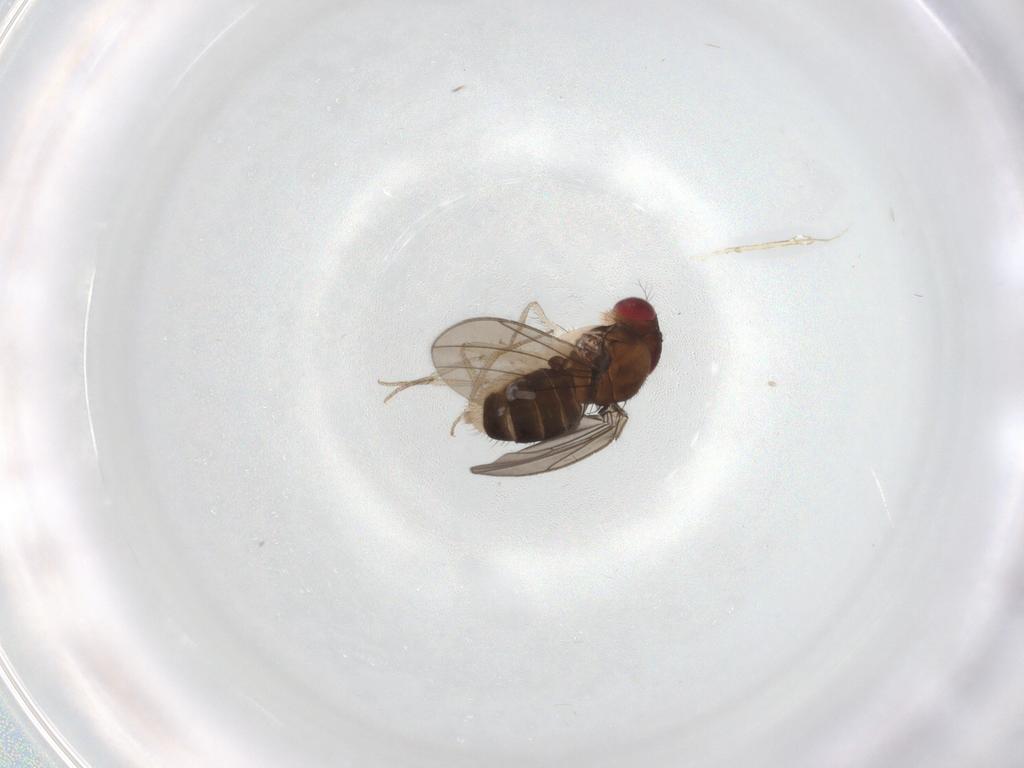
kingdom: Animalia
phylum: Arthropoda
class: Insecta
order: Diptera
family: Drosophilidae
